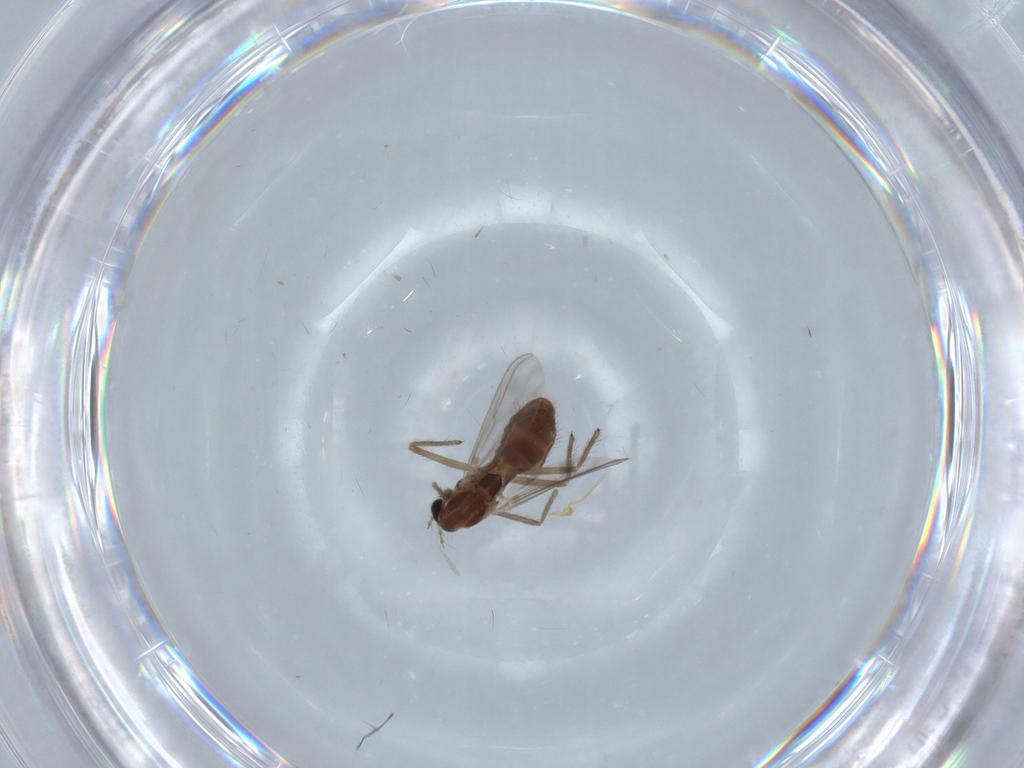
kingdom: Animalia
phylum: Arthropoda
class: Insecta
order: Diptera
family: Chironomidae
